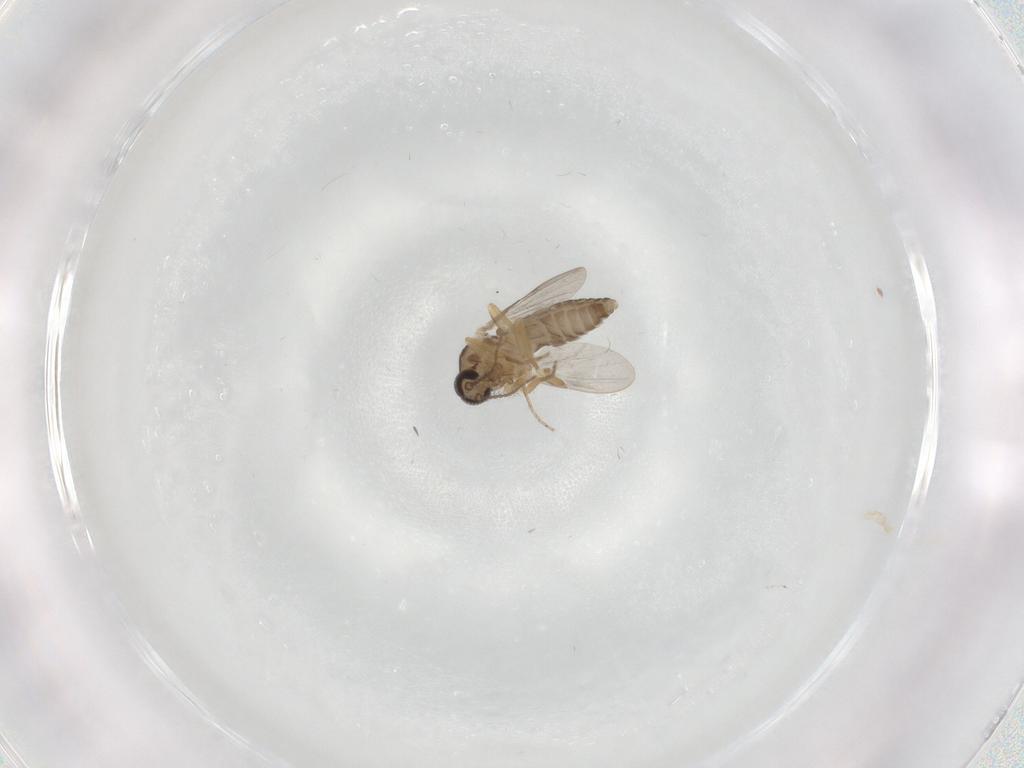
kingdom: Animalia
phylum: Arthropoda
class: Insecta
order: Diptera
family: Ceratopogonidae
